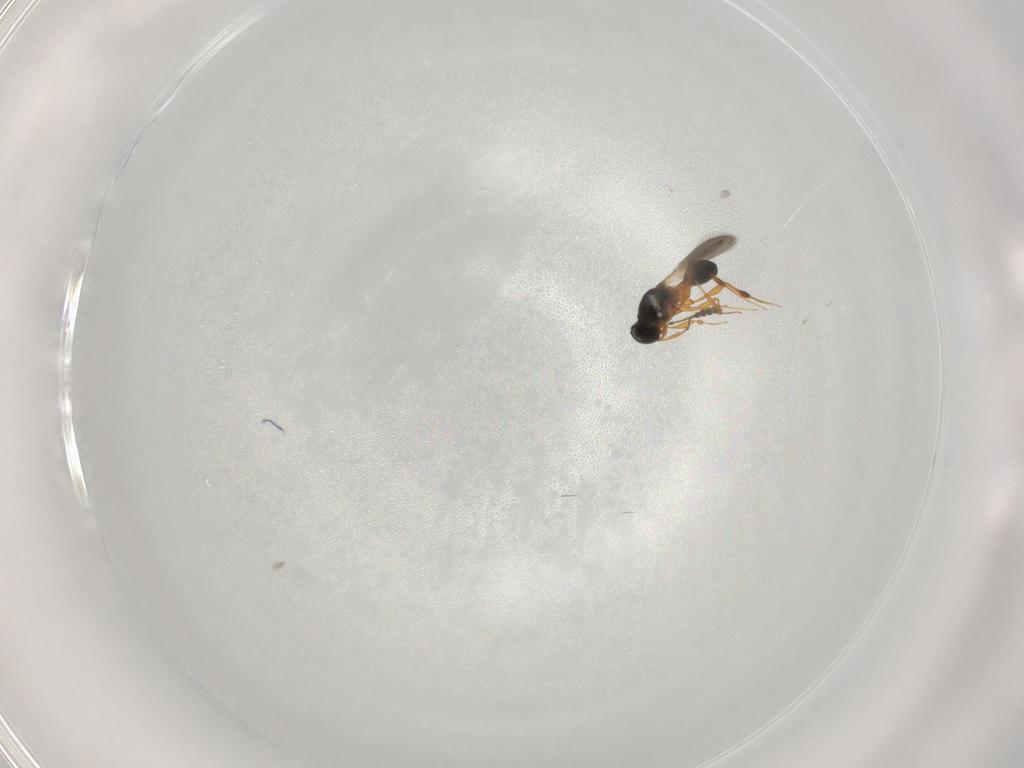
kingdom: Animalia
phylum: Arthropoda
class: Insecta
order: Hymenoptera
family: Platygastridae
